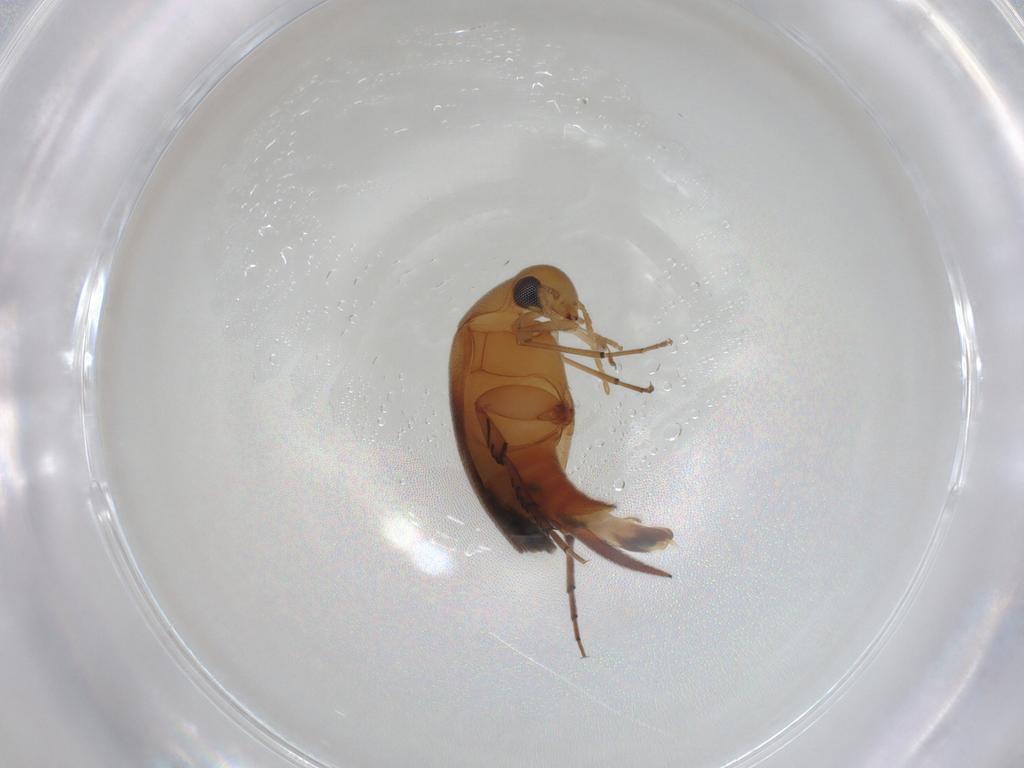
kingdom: Animalia
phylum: Arthropoda
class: Insecta
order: Coleoptera
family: Mordellidae
